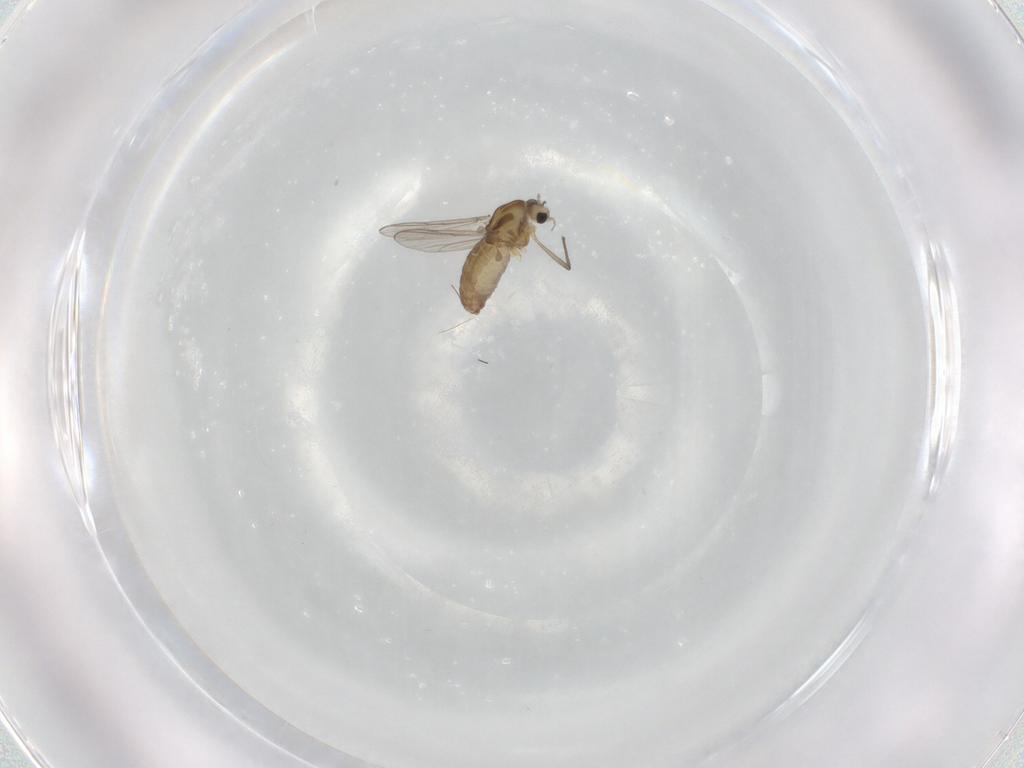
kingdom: Animalia
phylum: Arthropoda
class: Insecta
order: Diptera
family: Chironomidae
